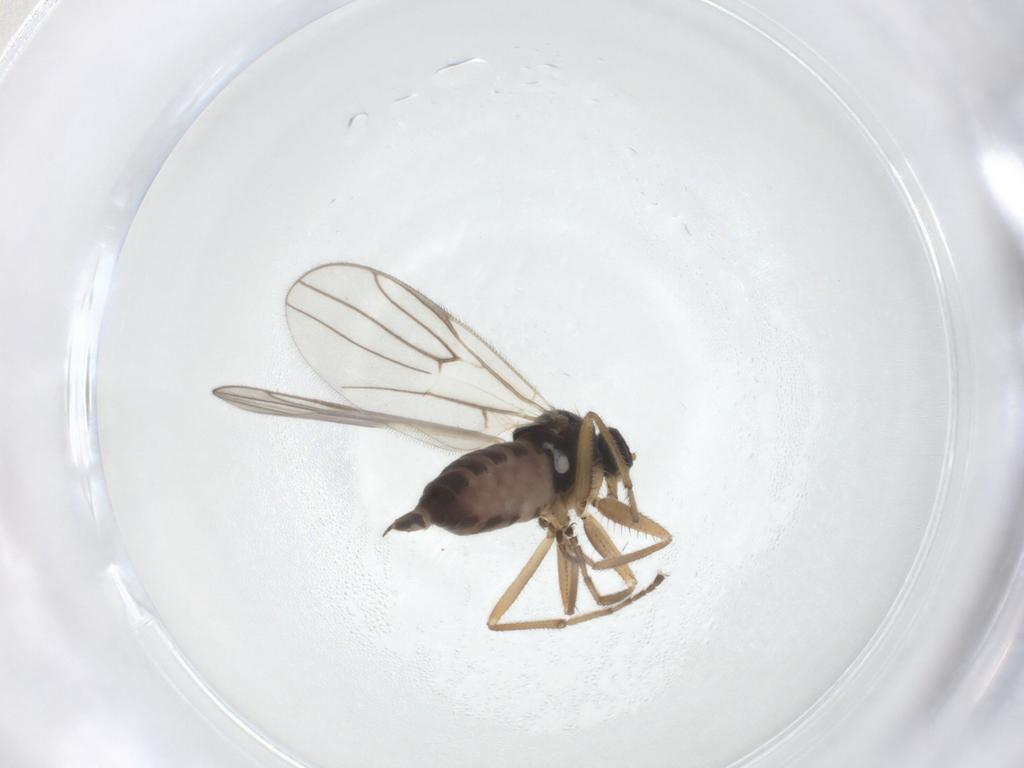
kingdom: Animalia
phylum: Arthropoda
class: Insecta
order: Diptera
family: Hybotidae
